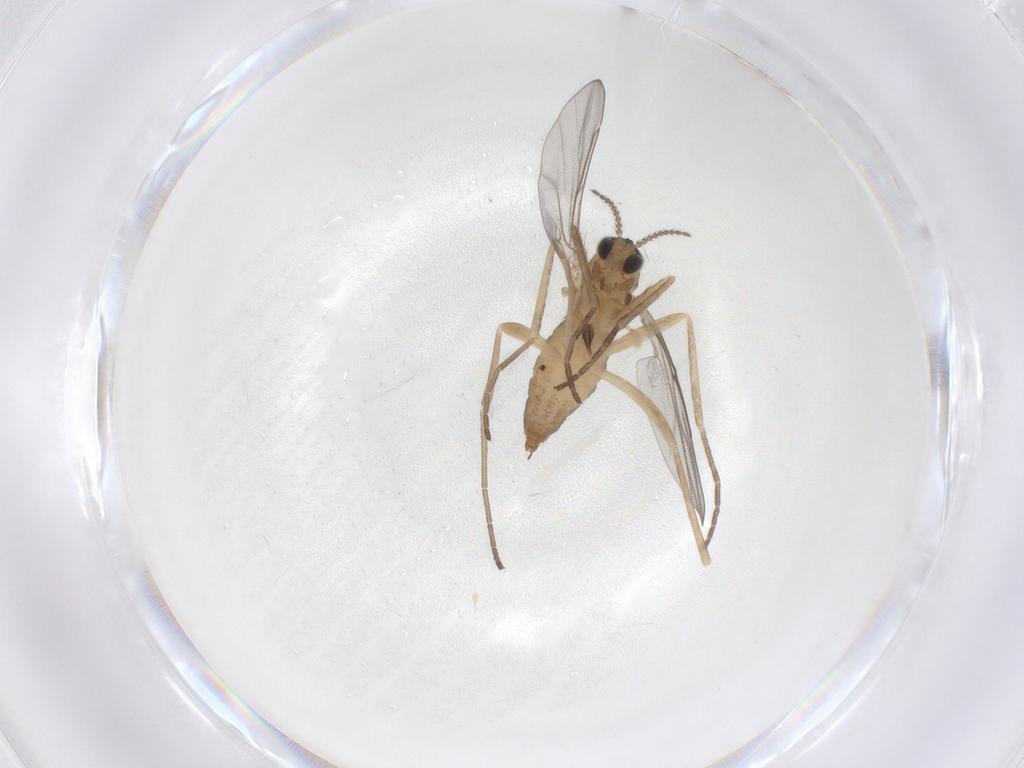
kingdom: Animalia
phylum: Arthropoda
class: Insecta
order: Diptera
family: Cecidomyiidae
